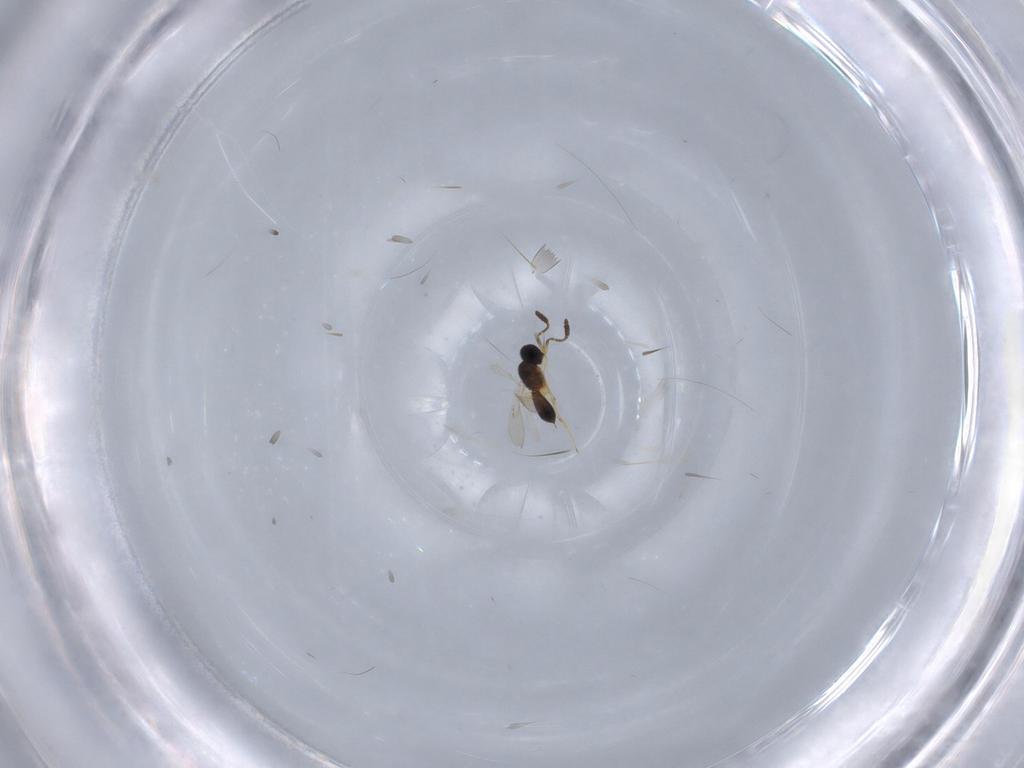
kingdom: Animalia
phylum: Arthropoda
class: Insecta
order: Hymenoptera
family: Scelionidae
